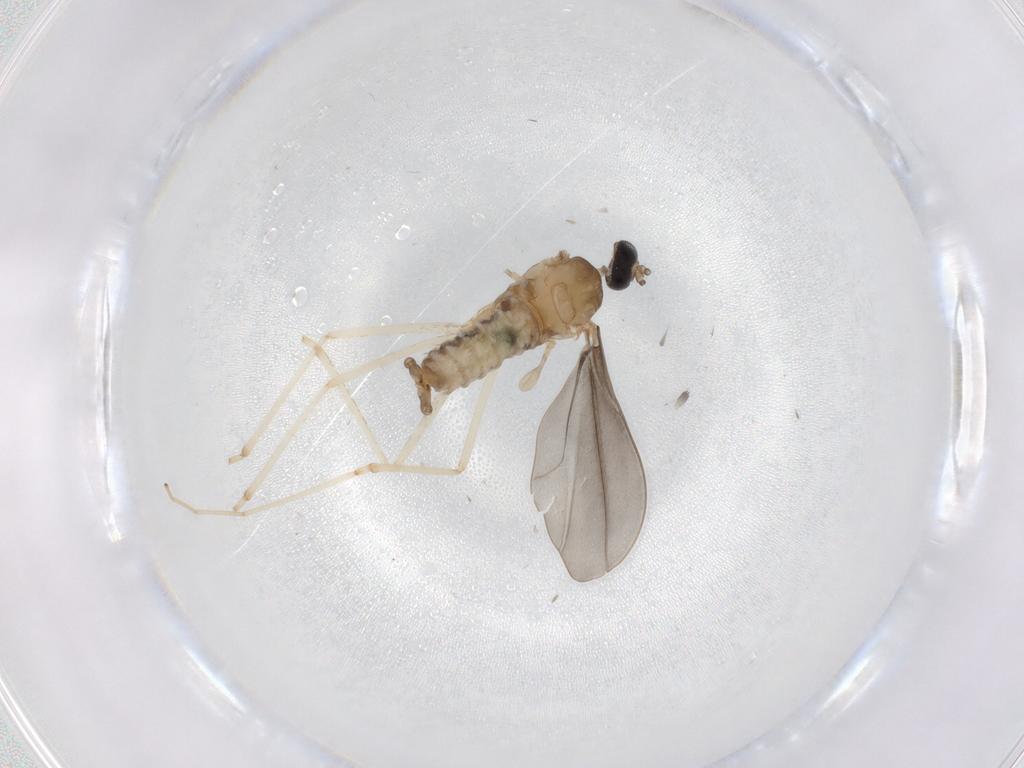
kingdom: Animalia
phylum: Arthropoda
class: Insecta
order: Diptera
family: Cecidomyiidae
